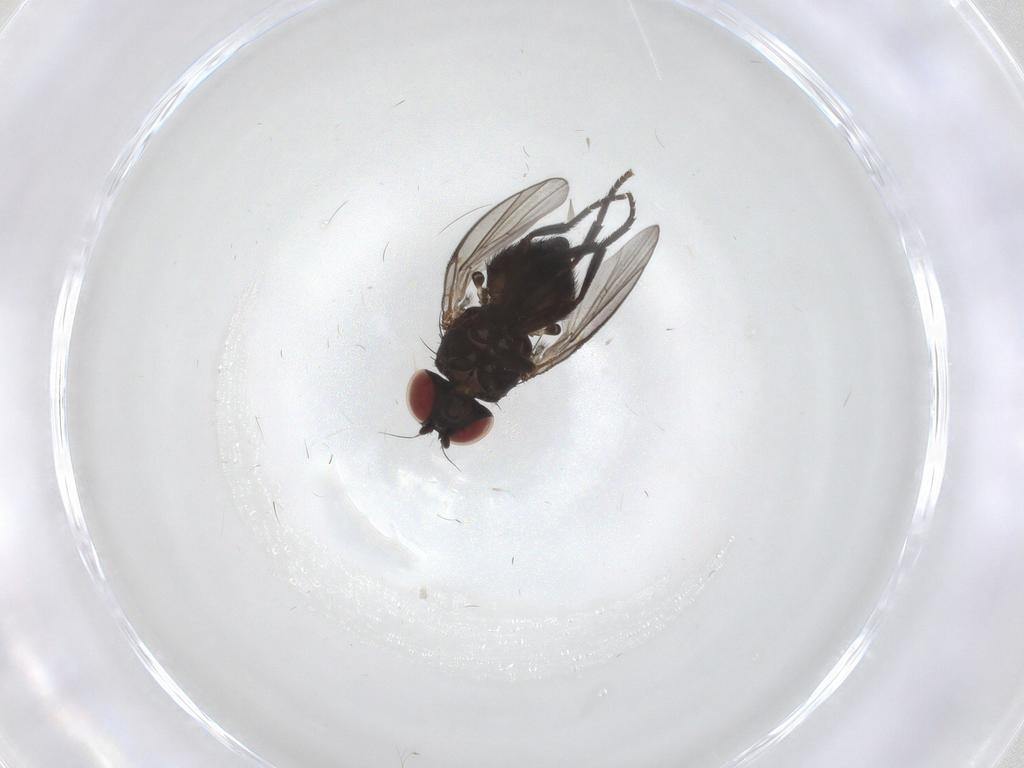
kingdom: Animalia
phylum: Arthropoda
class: Insecta
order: Diptera
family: Agromyzidae
